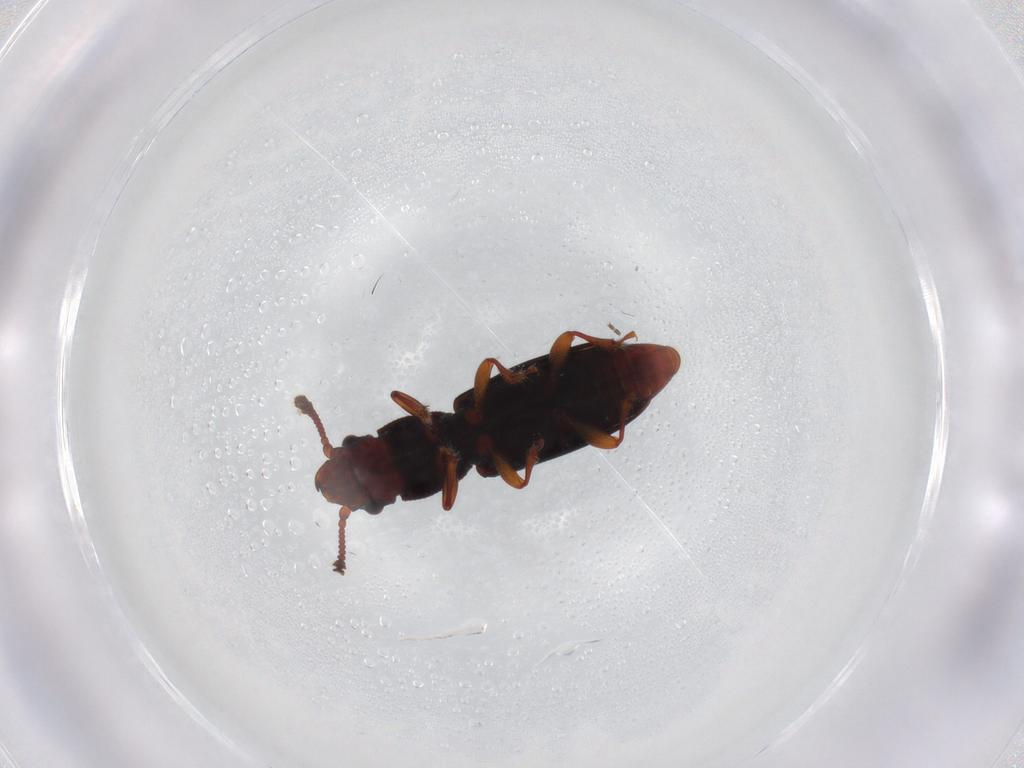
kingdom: Animalia
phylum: Arthropoda
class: Insecta
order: Coleoptera
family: Monotomidae
